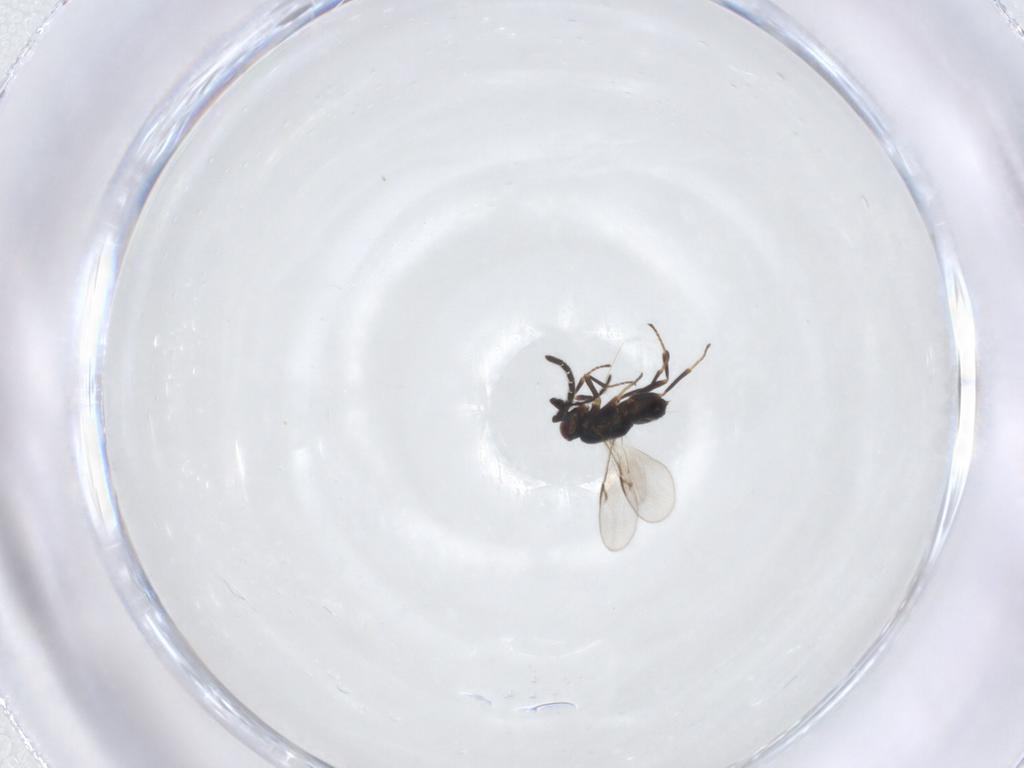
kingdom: Animalia
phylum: Arthropoda
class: Insecta
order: Hymenoptera
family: Encyrtidae
